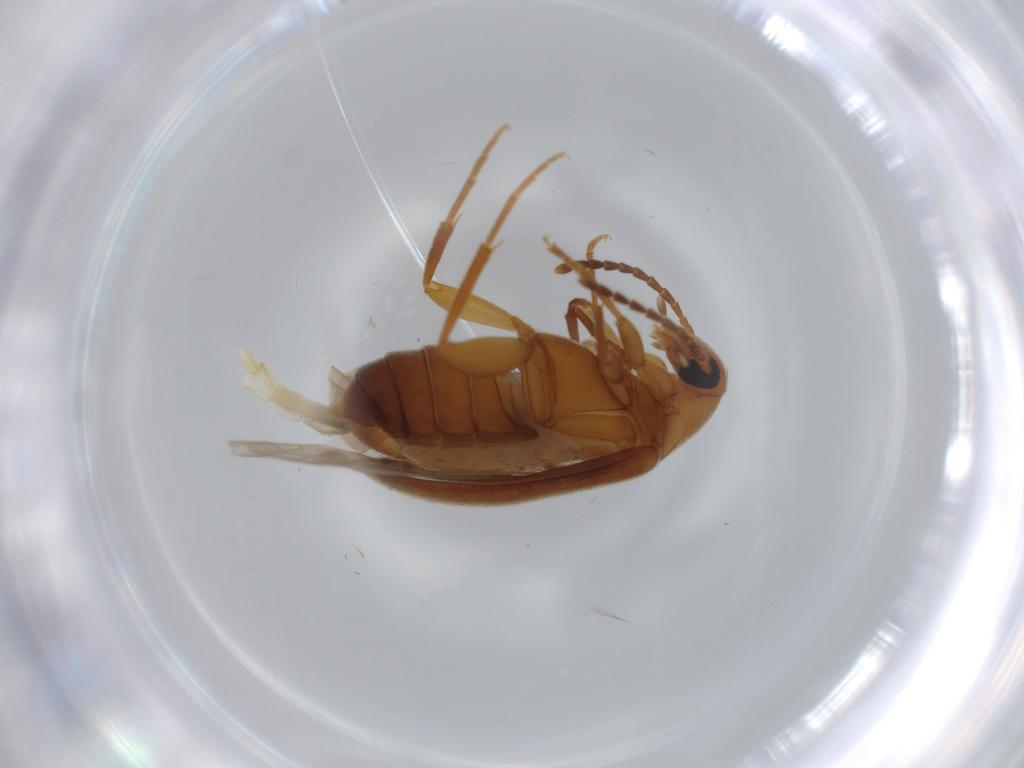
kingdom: Animalia
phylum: Arthropoda
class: Insecta
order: Coleoptera
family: Scraptiidae
